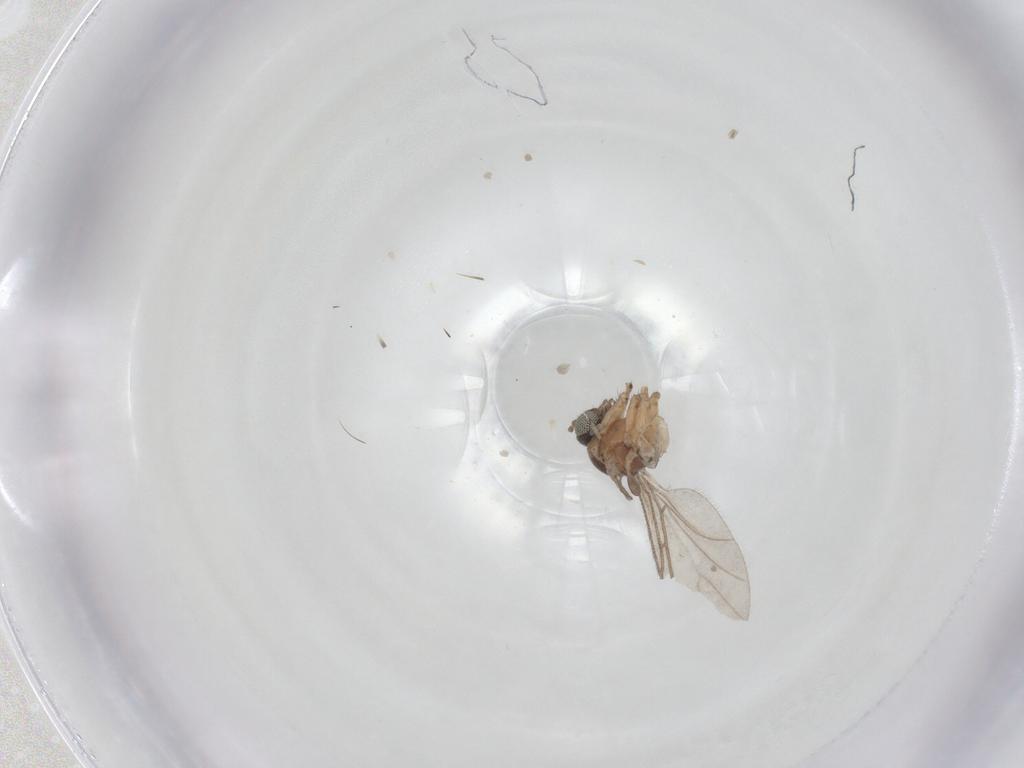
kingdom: Animalia
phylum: Arthropoda
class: Insecta
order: Diptera
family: Sciaridae
